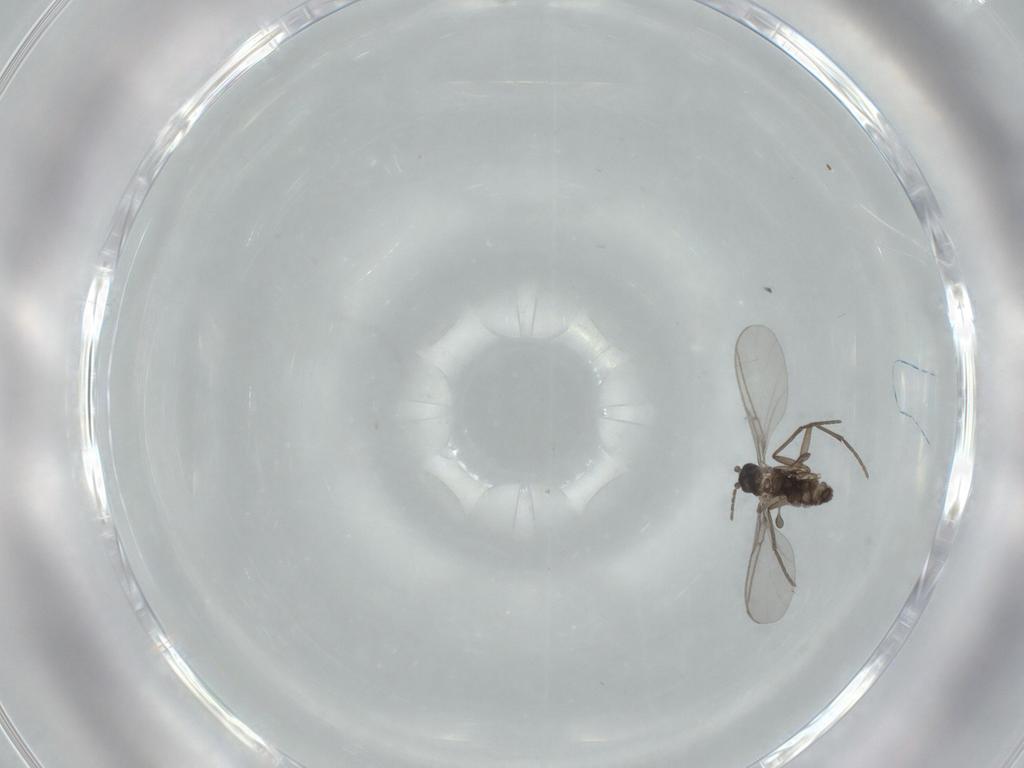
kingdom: Animalia
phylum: Arthropoda
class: Insecta
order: Diptera
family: Sciaridae
